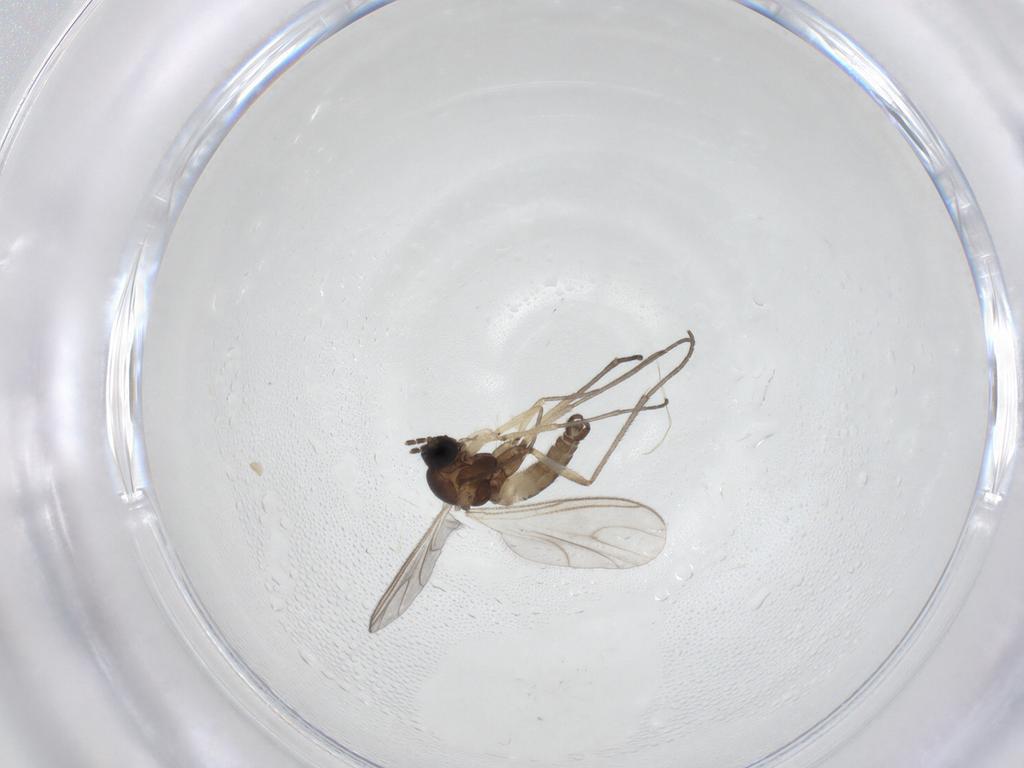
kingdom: Animalia
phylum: Arthropoda
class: Insecta
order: Diptera
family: Sciaridae
